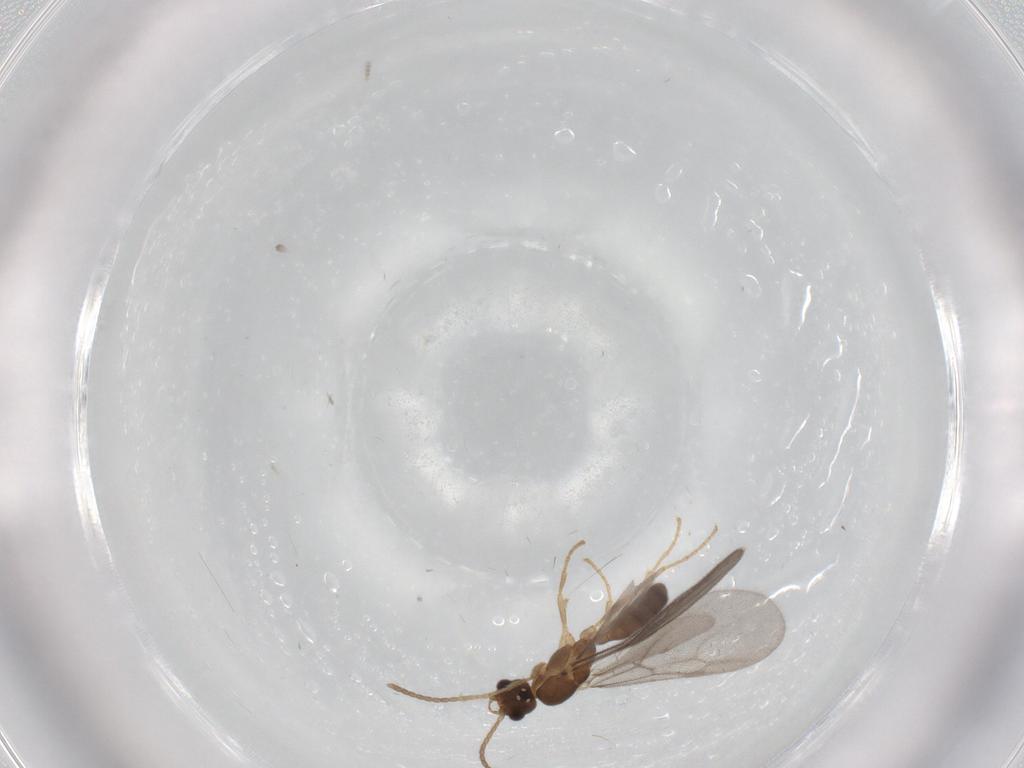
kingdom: Animalia
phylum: Arthropoda
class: Insecta
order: Hymenoptera
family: Formicidae
